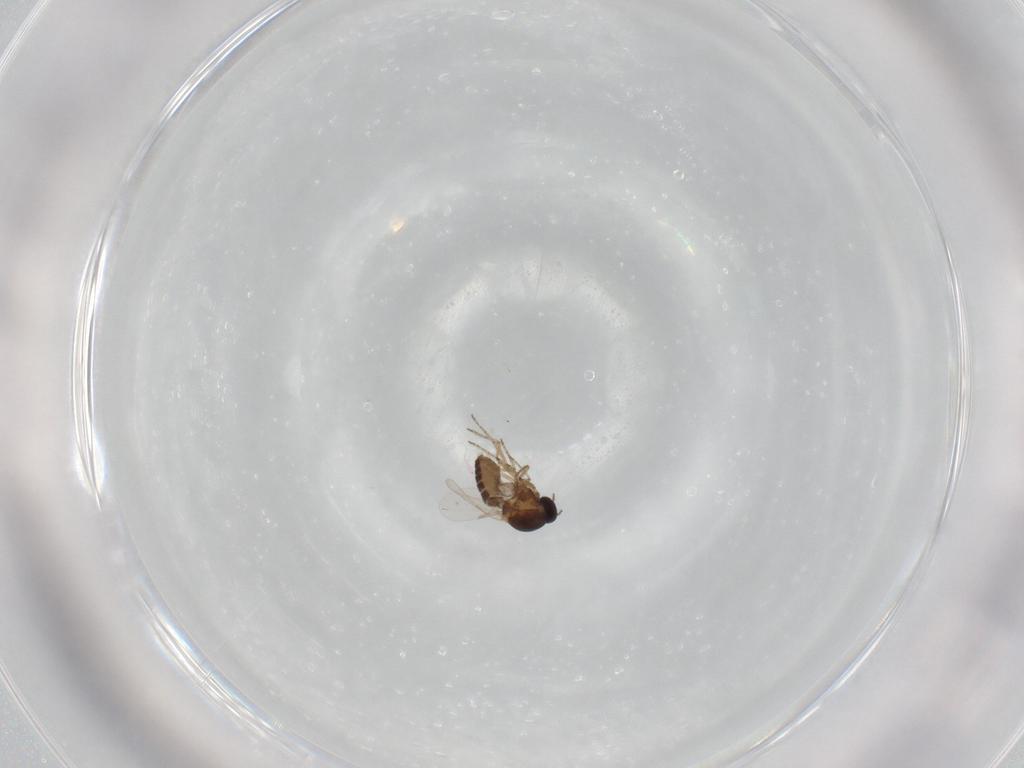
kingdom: Animalia
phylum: Arthropoda
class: Insecta
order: Diptera
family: Ceratopogonidae
